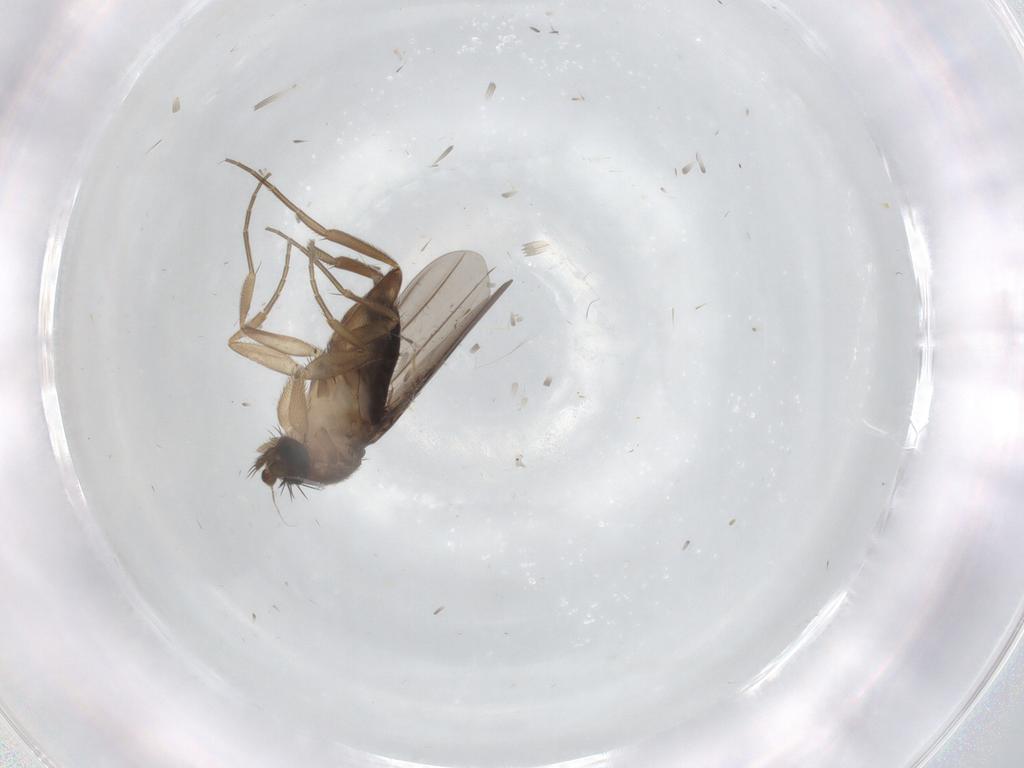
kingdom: Animalia
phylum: Arthropoda
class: Insecta
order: Diptera
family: Phoridae
